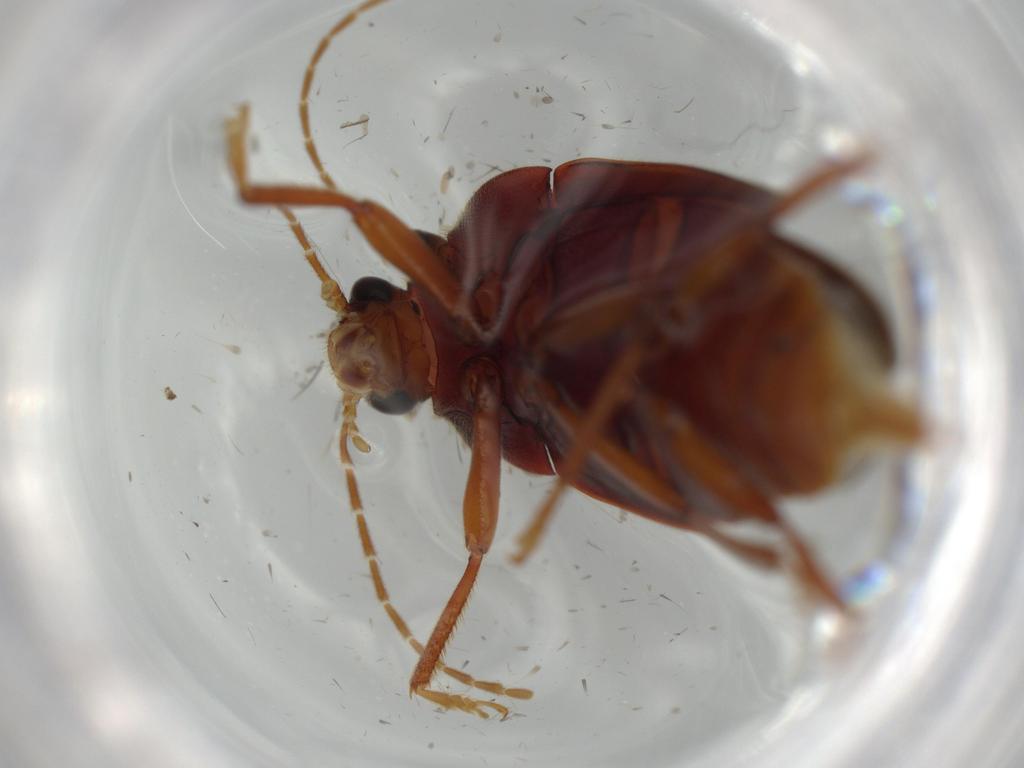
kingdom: Animalia
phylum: Arthropoda
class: Insecta
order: Coleoptera
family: Ptilodactylidae
